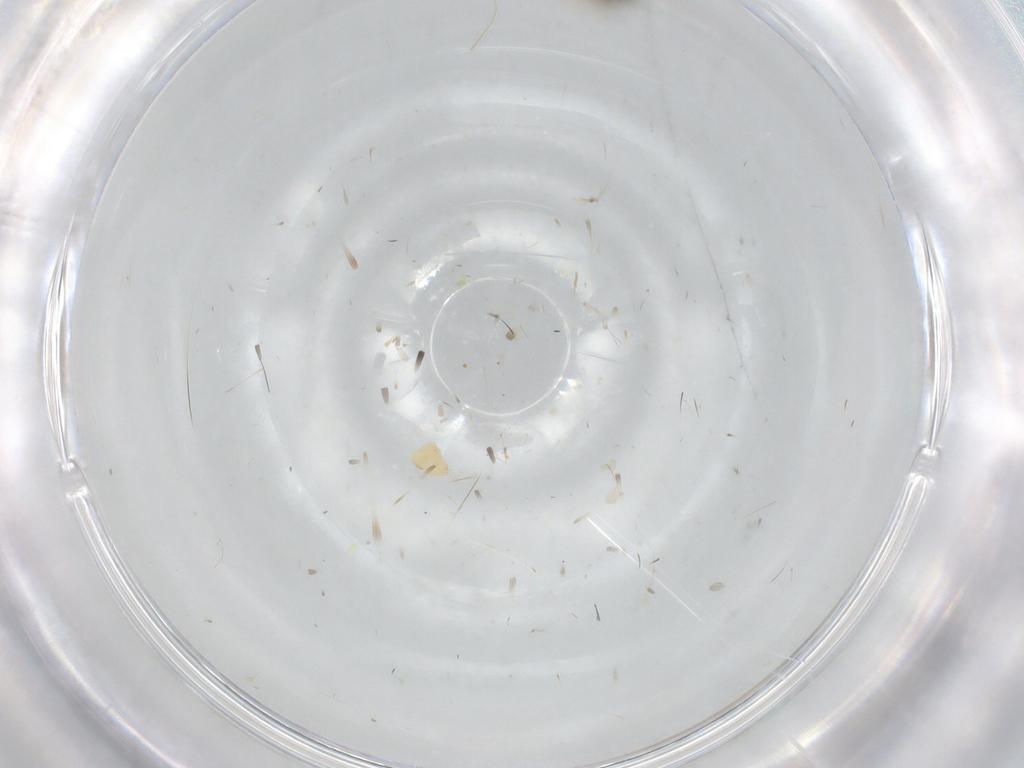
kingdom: Animalia
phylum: Arthropoda
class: Insecta
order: Diptera
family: Sarcophagidae
